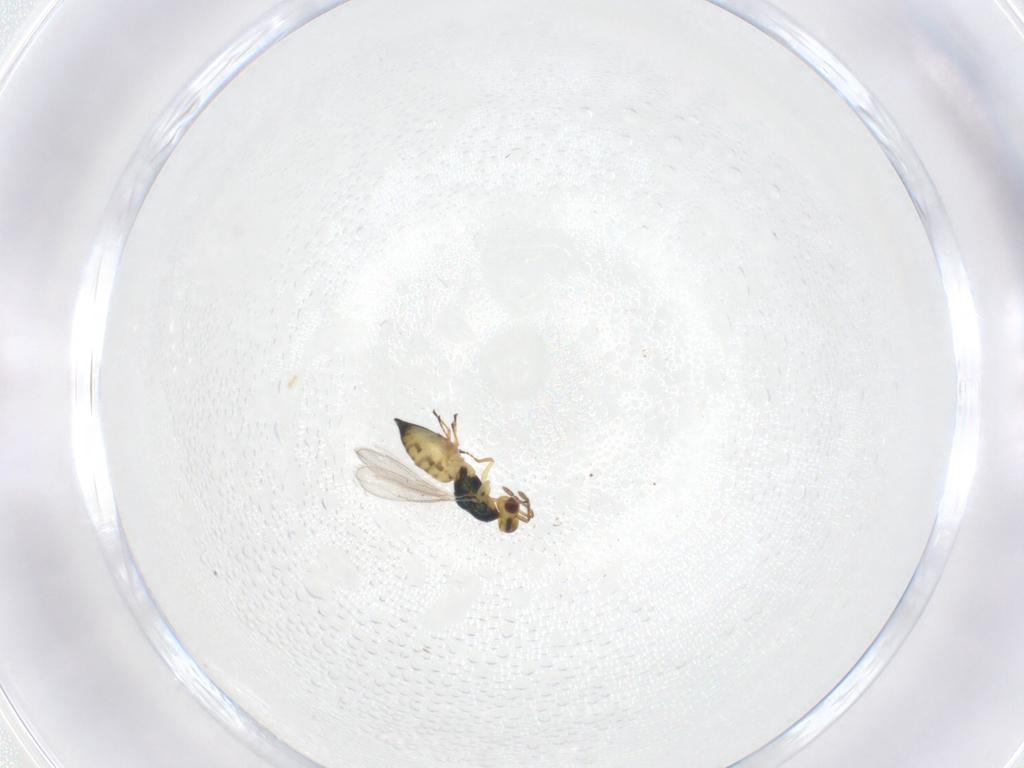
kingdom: Animalia
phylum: Arthropoda
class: Insecta
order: Hymenoptera
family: Eulophidae
